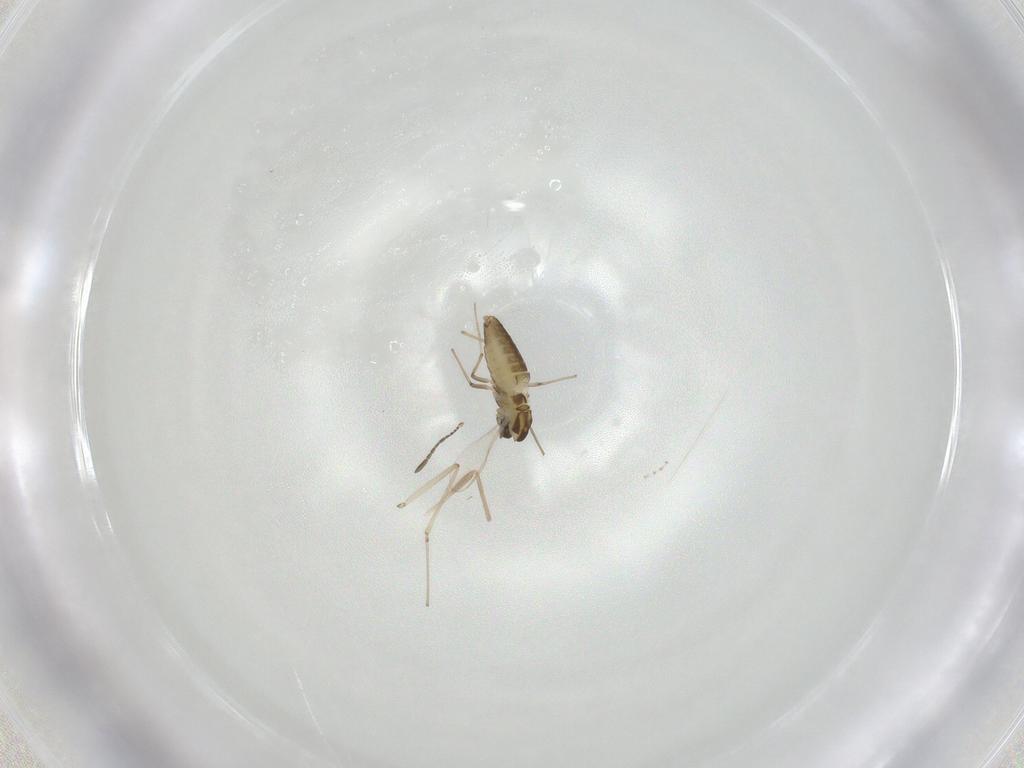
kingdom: Animalia
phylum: Arthropoda
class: Insecta
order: Diptera
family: Chironomidae
